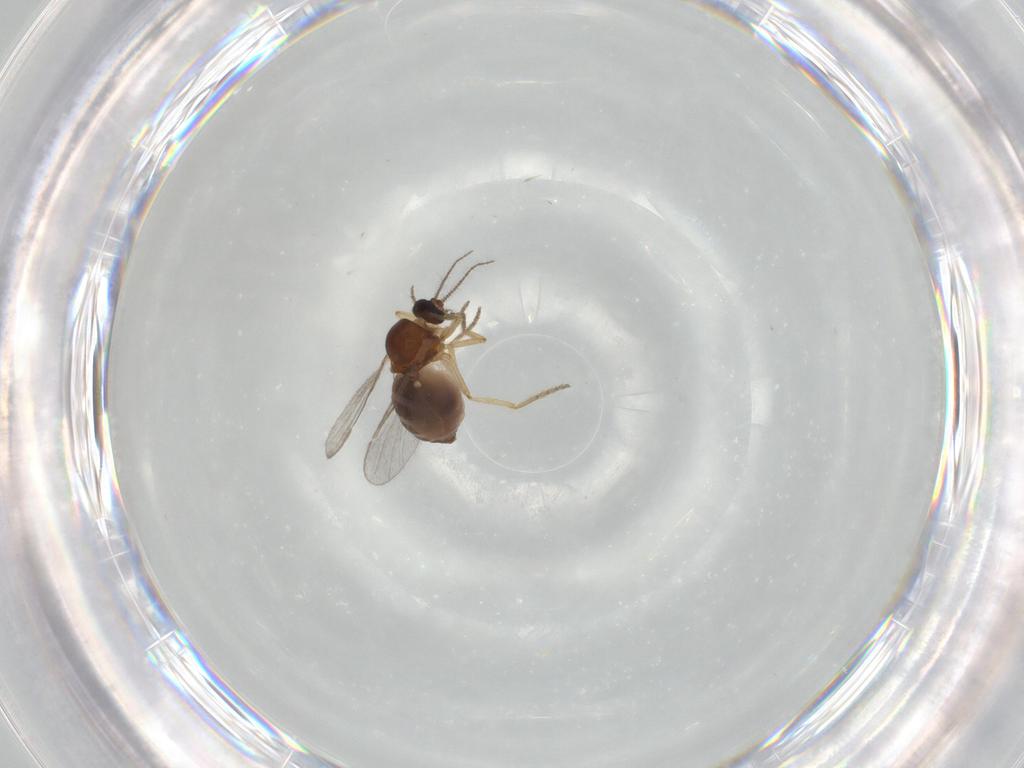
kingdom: Animalia
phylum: Arthropoda
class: Insecta
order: Diptera
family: Ceratopogonidae
